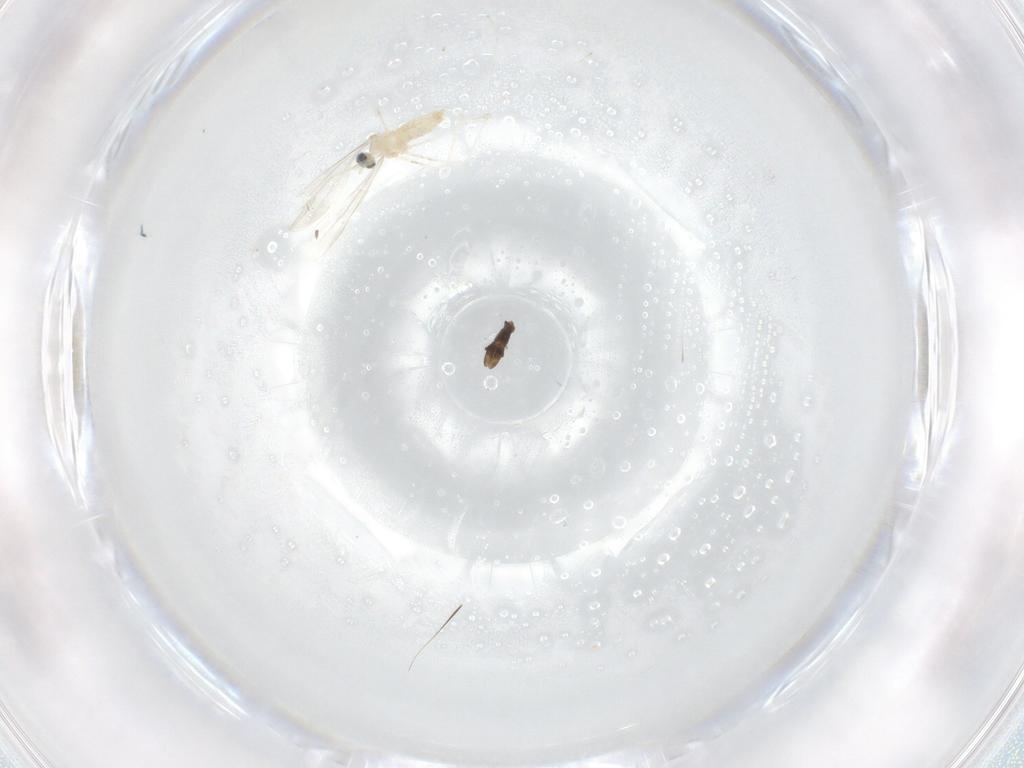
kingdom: Animalia
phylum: Arthropoda
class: Insecta
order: Diptera
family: Cecidomyiidae
